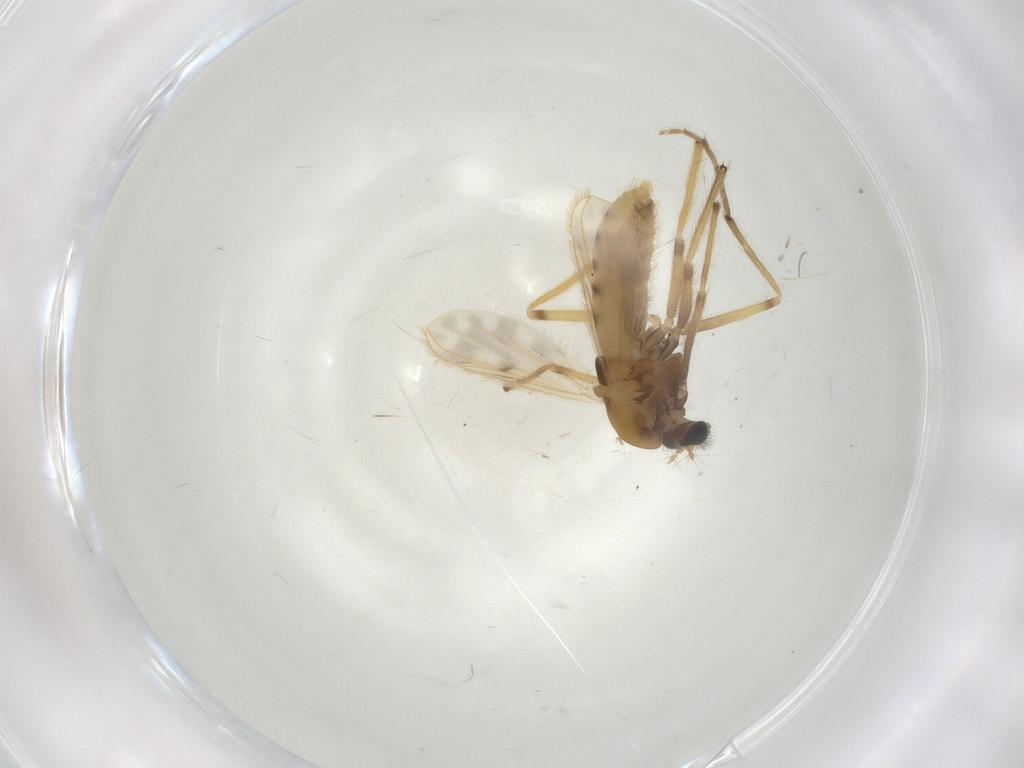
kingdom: Animalia
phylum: Arthropoda
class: Insecta
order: Diptera
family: Chironomidae
